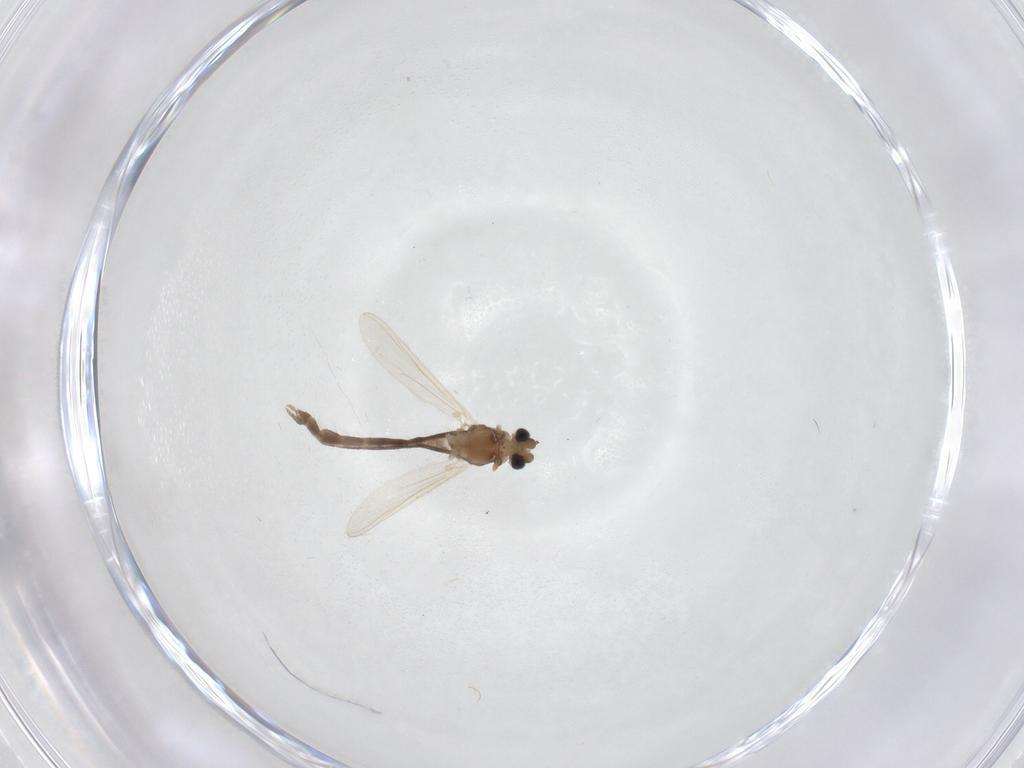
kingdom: Animalia
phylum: Arthropoda
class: Insecta
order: Diptera
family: Chironomidae
